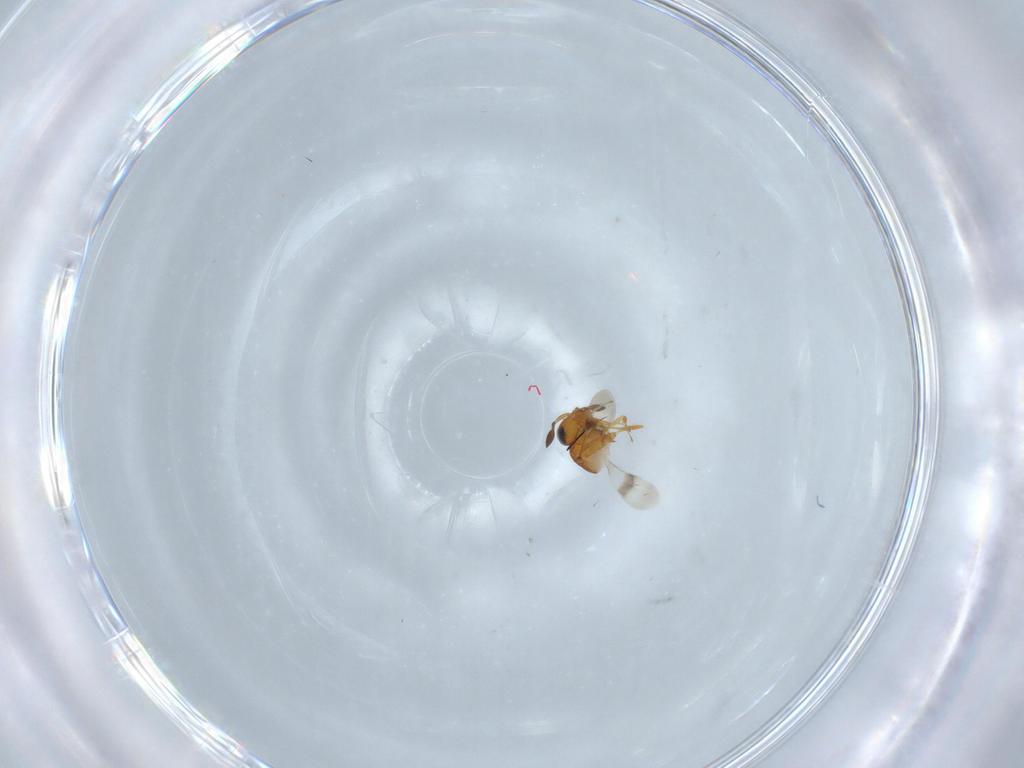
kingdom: Animalia
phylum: Arthropoda
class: Insecta
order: Hymenoptera
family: Scelionidae
